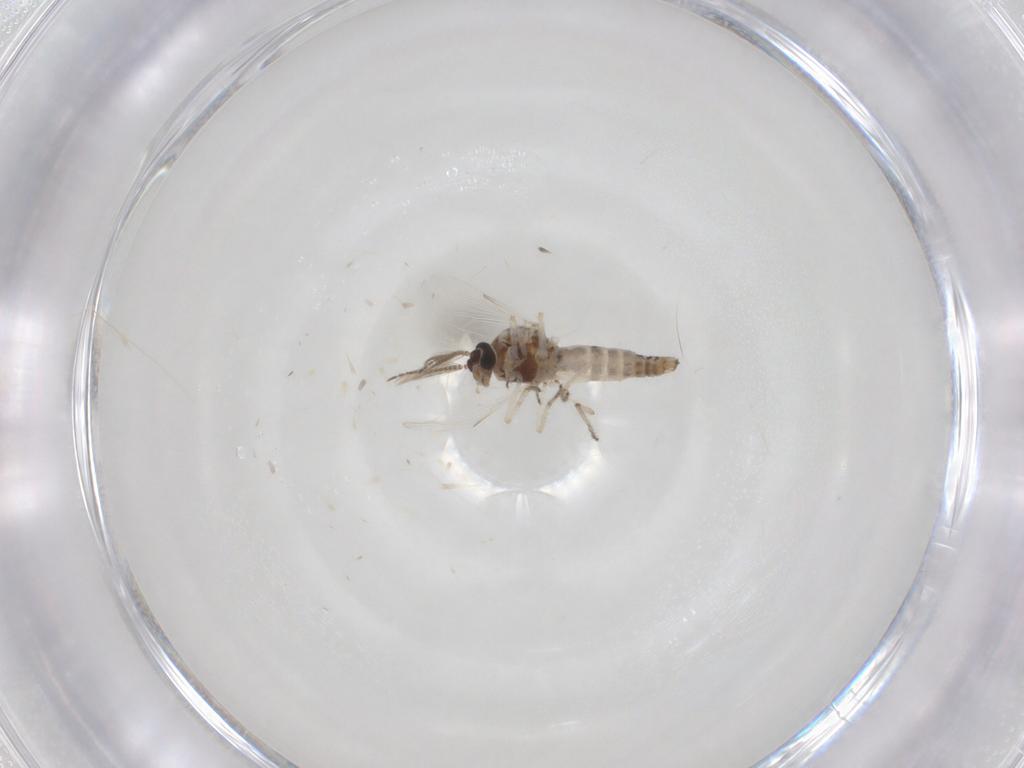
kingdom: Animalia
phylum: Arthropoda
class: Insecta
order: Diptera
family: Ceratopogonidae
